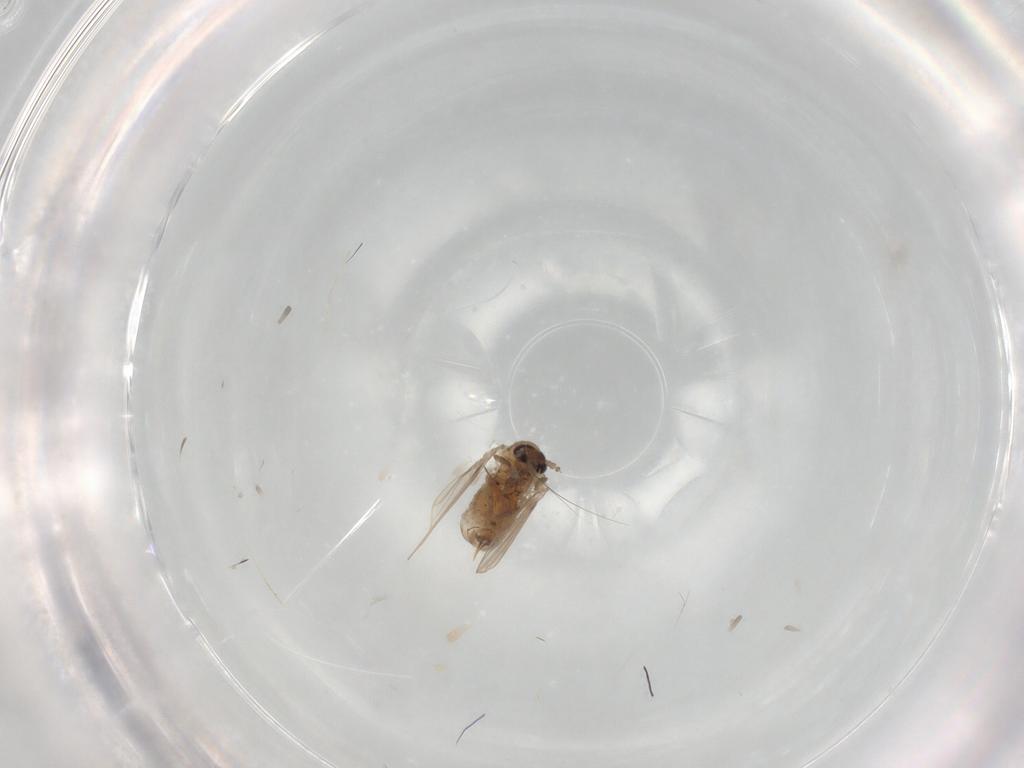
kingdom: Animalia
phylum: Arthropoda
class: Insecta
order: Diptera
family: Psychodidae
